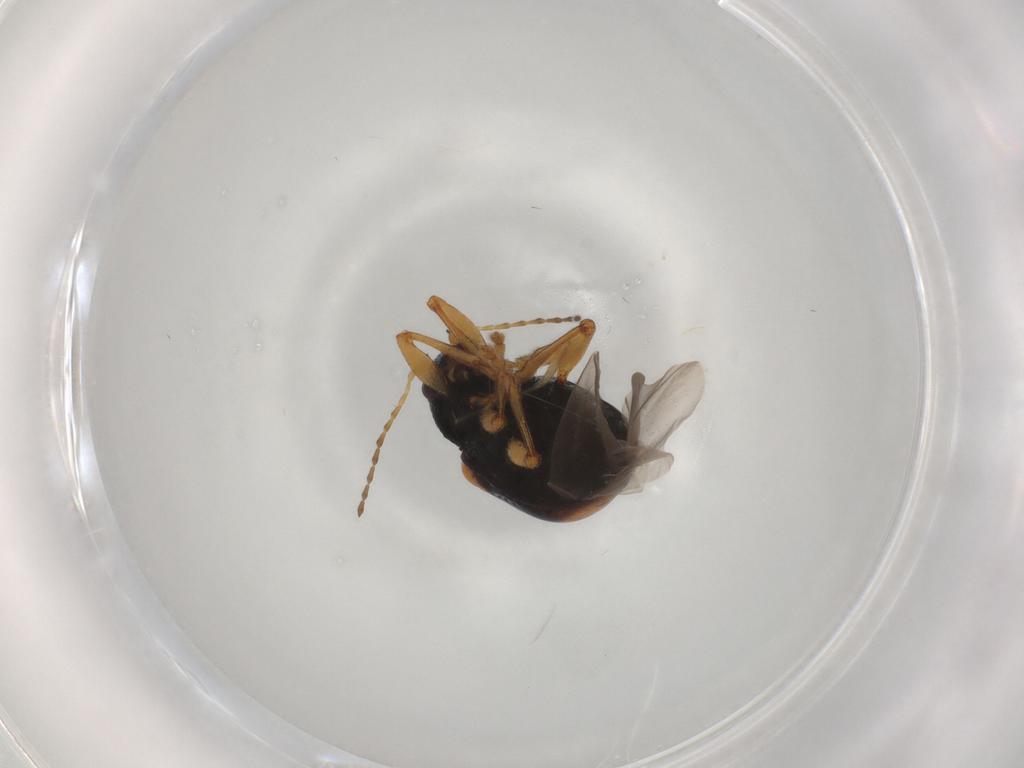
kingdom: Animalia
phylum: Arthropoda
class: Insecta
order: Coleoptera
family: Chrysomelidae
